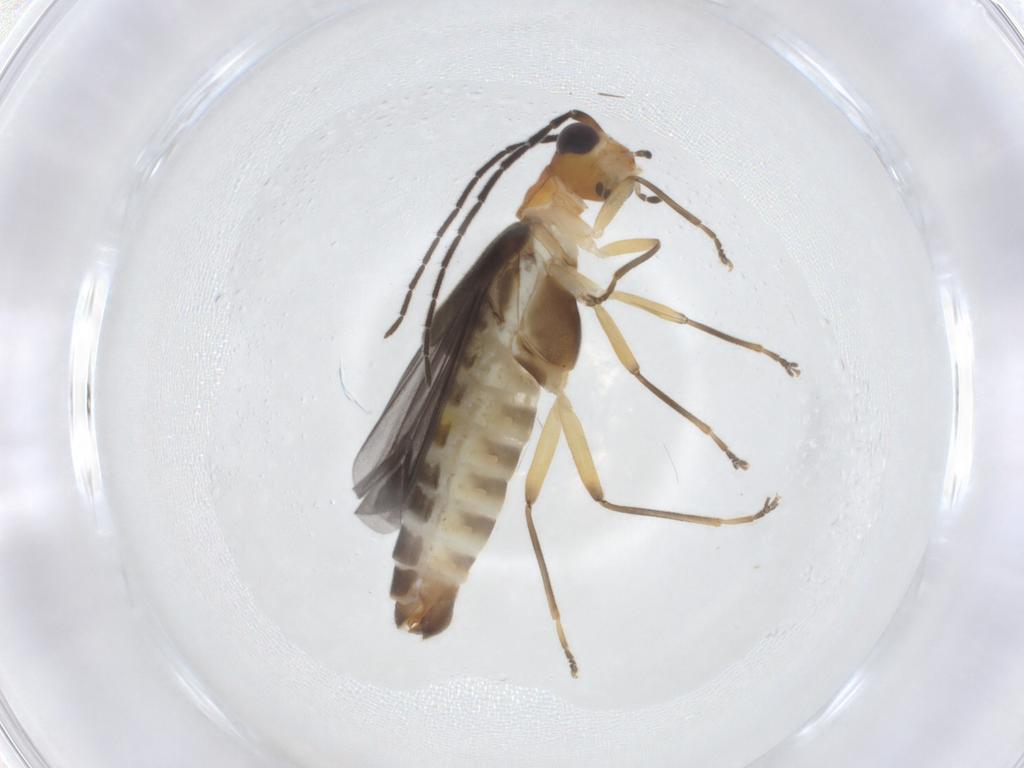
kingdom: Animalia
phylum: Arthropoda
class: Insecta
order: Coleoptera
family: Cantharidae
